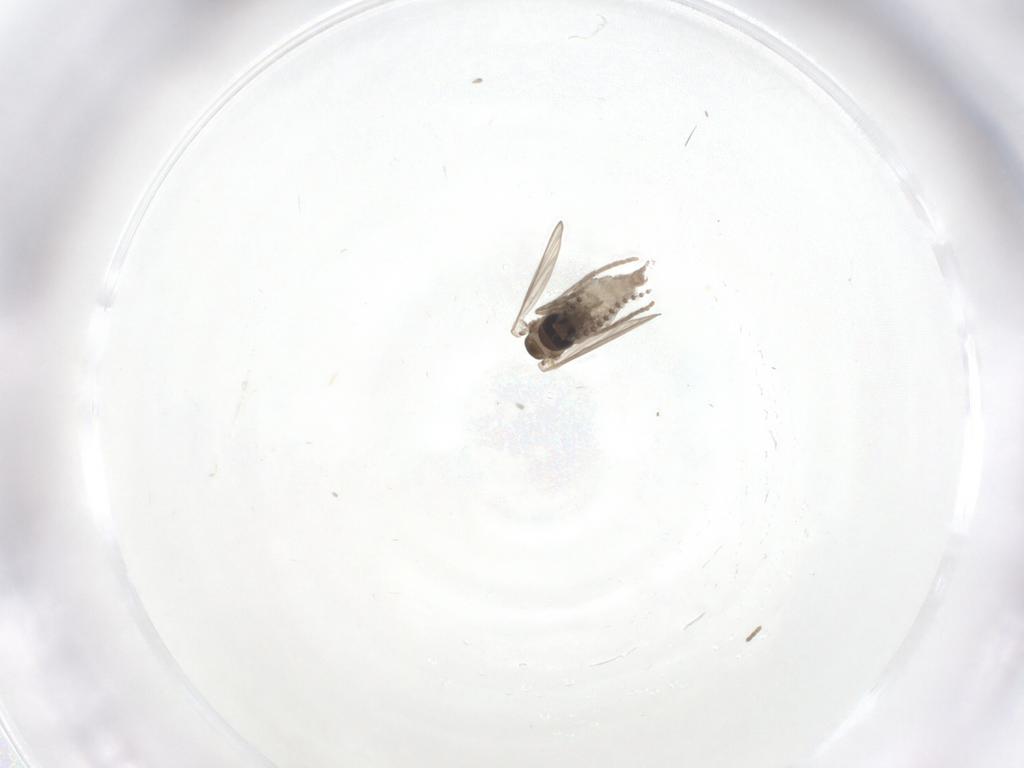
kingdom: Animalia
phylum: Arthropoda
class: Insecta
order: Diptera
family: Psychodidae
